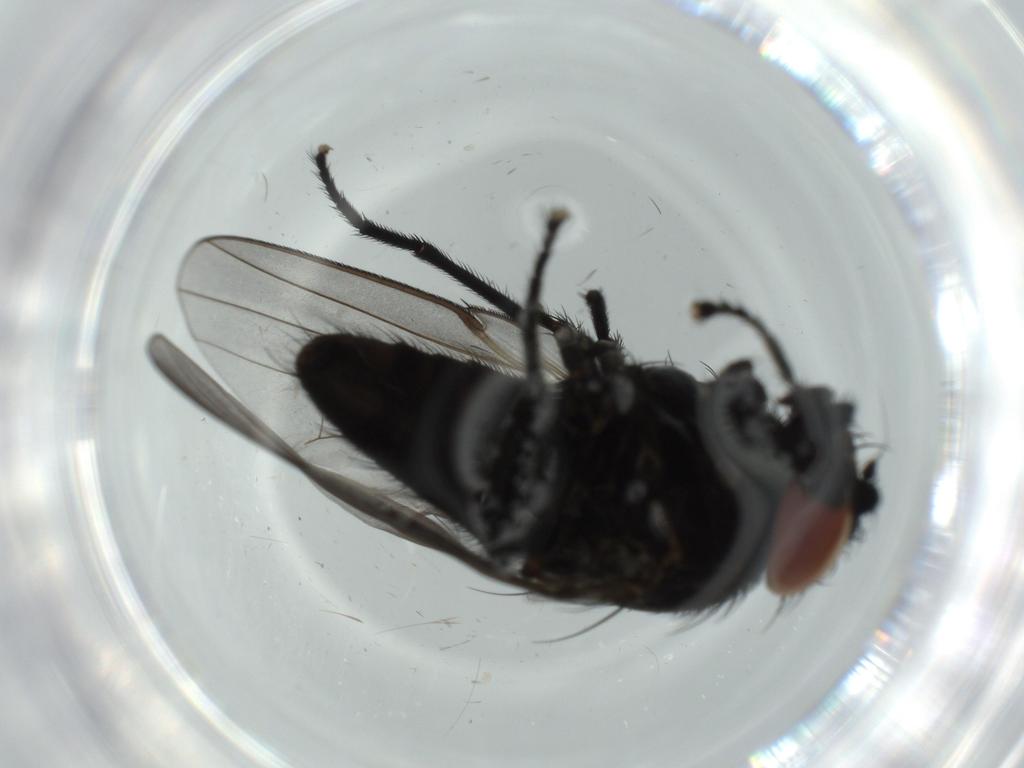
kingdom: Animalia
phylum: Arthropoda
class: Insecta
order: Diptera
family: Milichiidae
